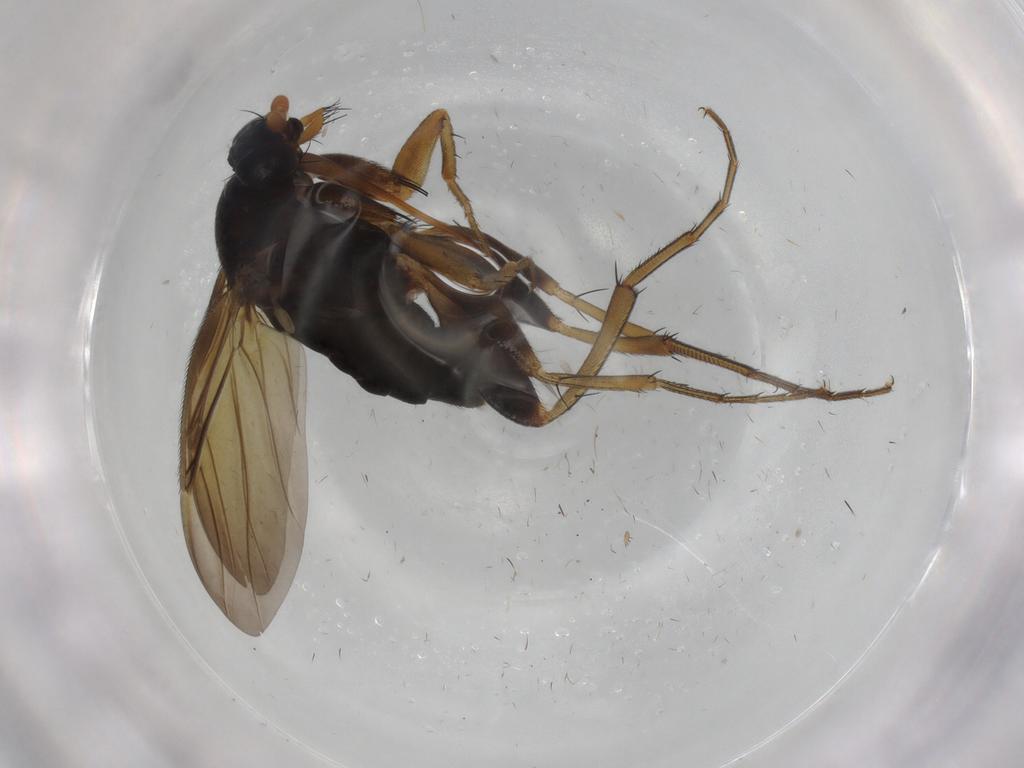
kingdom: Animalia
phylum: Arthropoda
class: Insecta
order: Diptera
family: Phoridae
